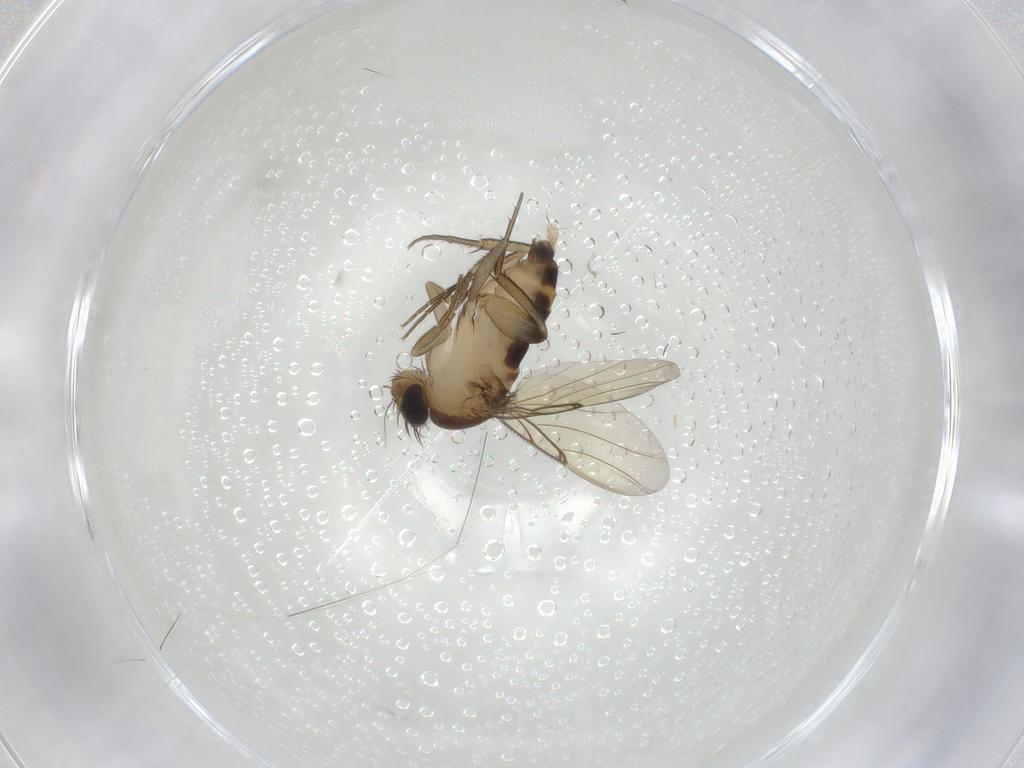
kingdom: Animalia
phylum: Arthropoda
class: Insecta
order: Diptera
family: Phoridae
